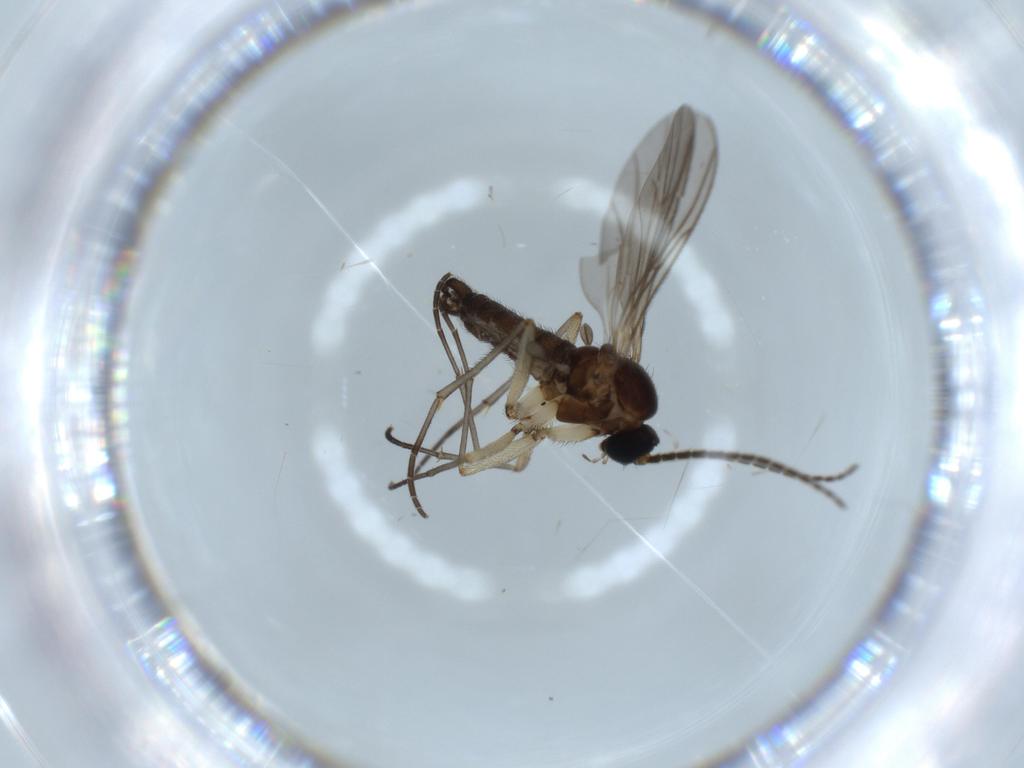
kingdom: Animalia
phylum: Arthropoda
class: Insecta
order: Diptera
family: Sciaridae
